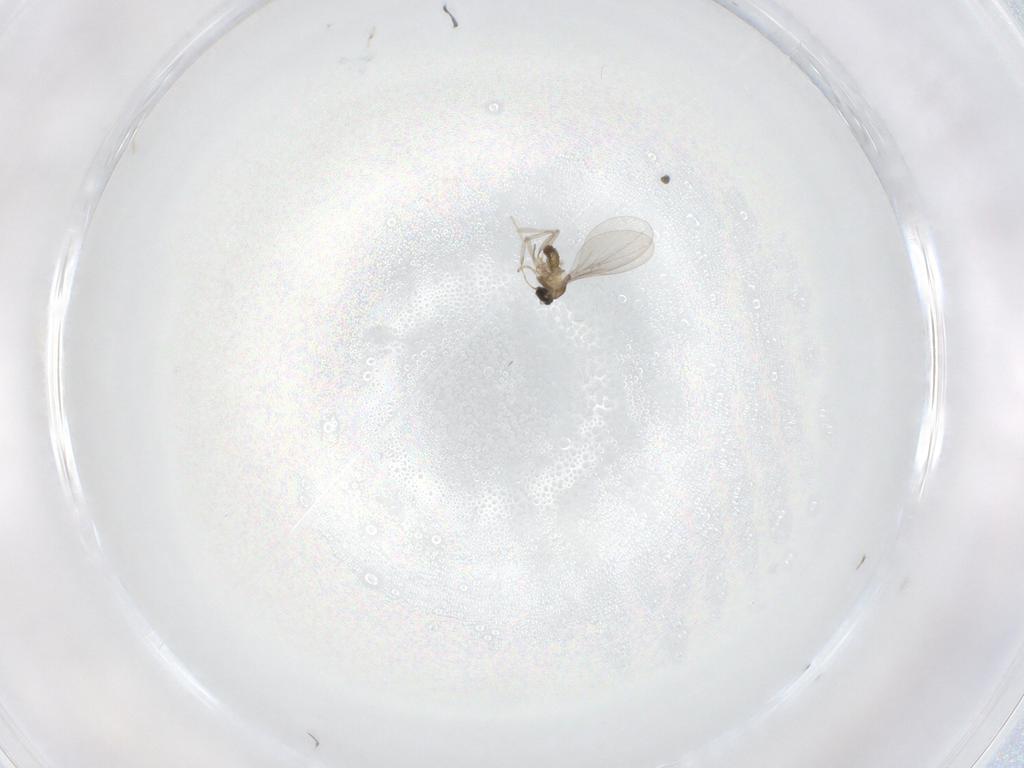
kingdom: Animalia
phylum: Arthropoda
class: Insecta
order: Diptera
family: Cecidomyiidae
